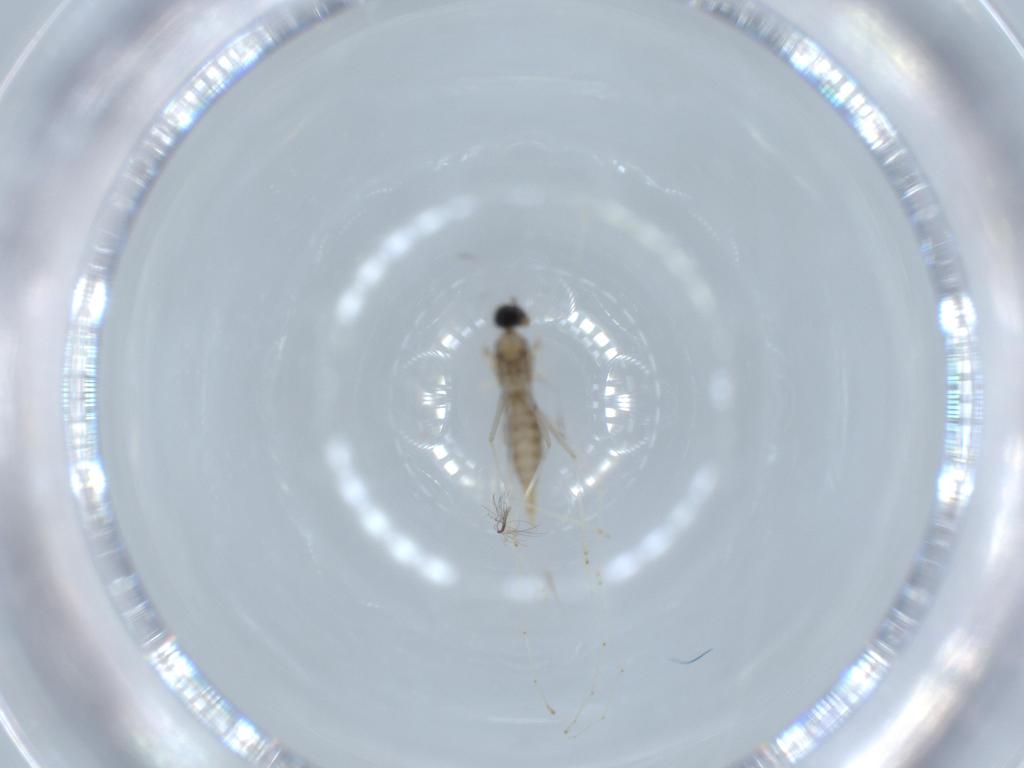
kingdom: Animalia
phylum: Arthropoda
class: Insecta
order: Diptera
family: Cecidomyiidae
